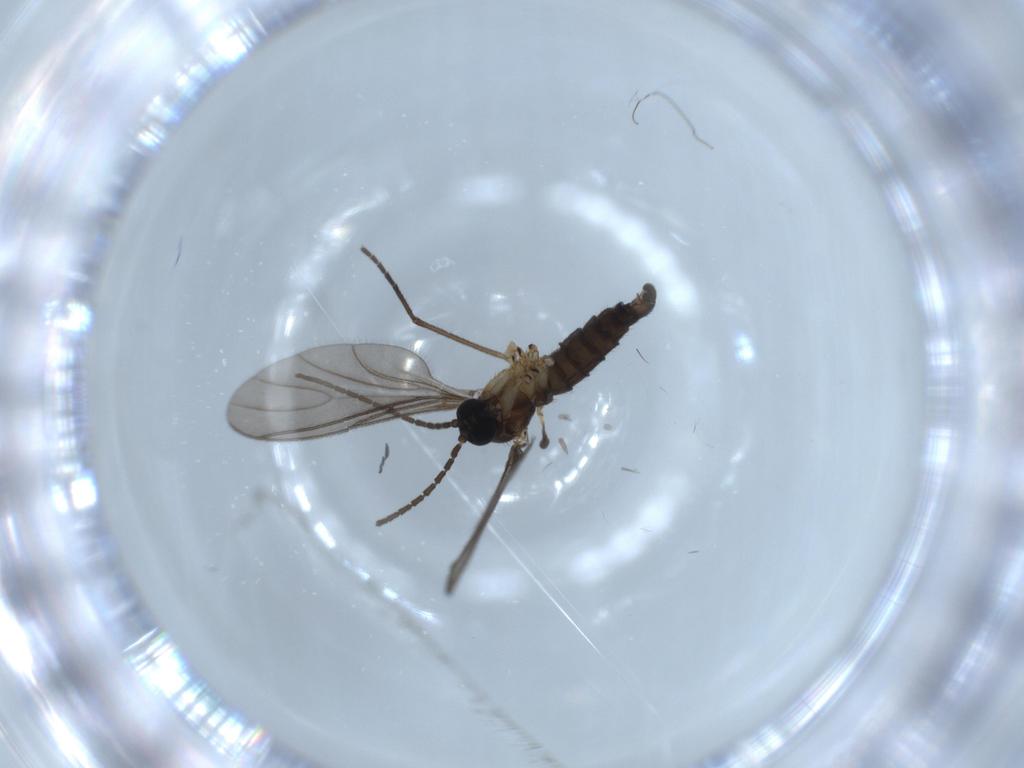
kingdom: Animalia
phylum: Arthropoda
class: Insecta
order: Diptera
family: Sciaridae
